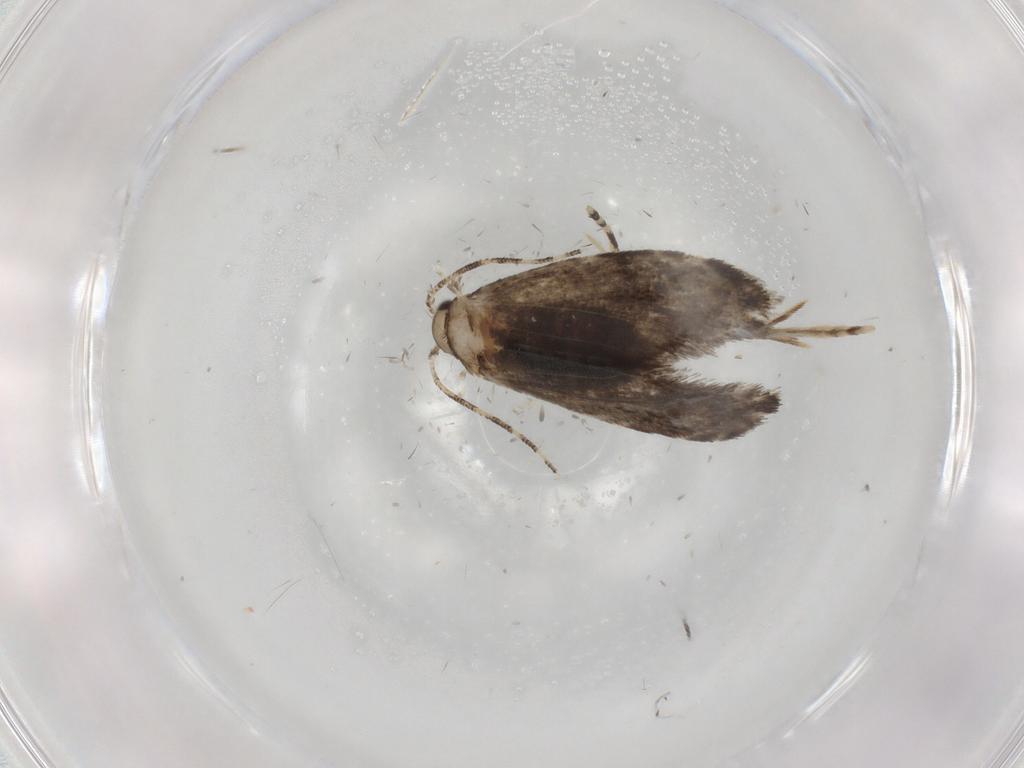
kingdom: Animalia
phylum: Arthropoda
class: Insecta
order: Lepidoptera
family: Tineidae
